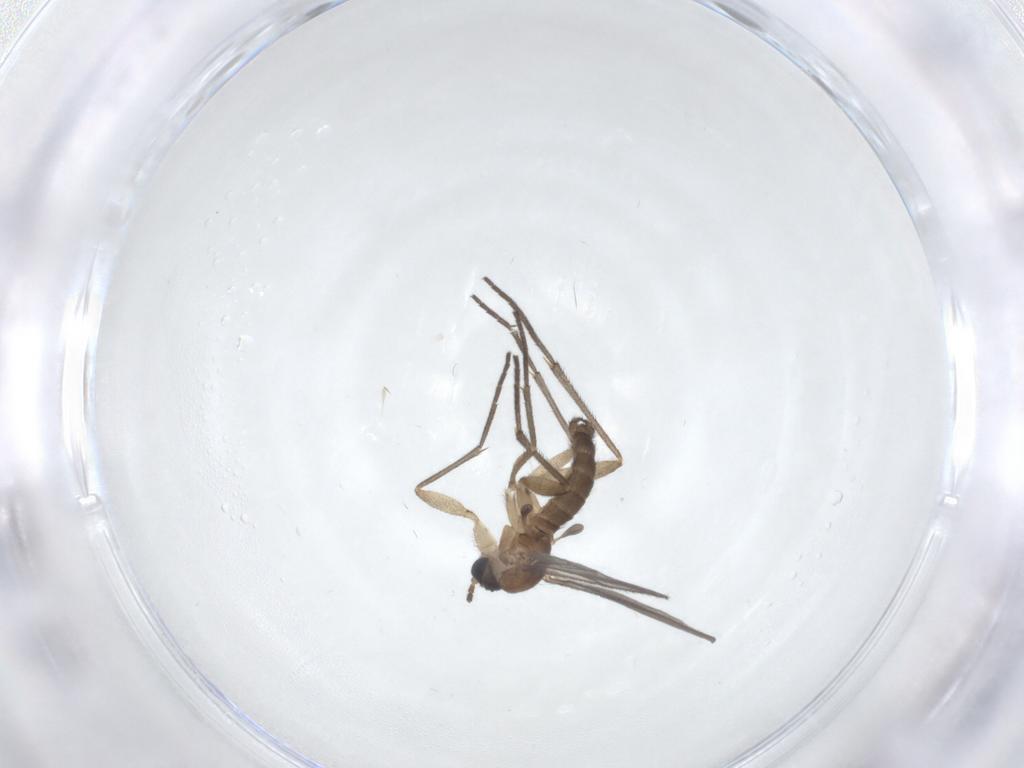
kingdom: Animalia
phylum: Arthropoda
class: Insecta
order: Diptera
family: Sciaridae
